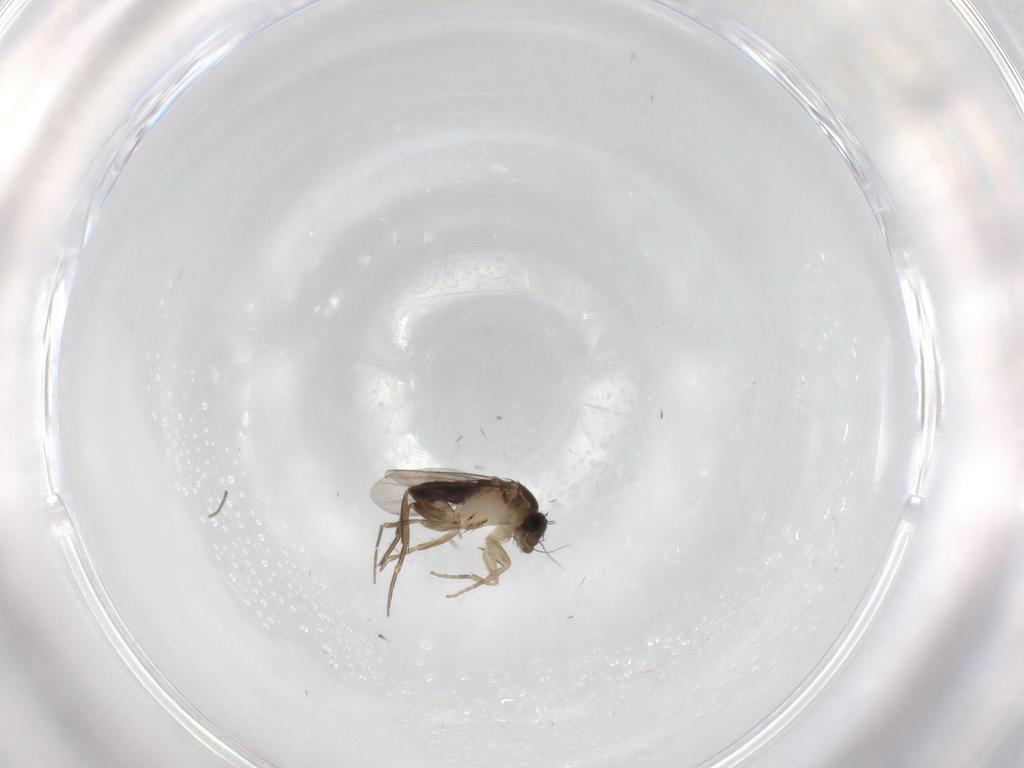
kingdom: Animalia
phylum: Arthropoda
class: Insecta
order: Diptera
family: Phoridae
